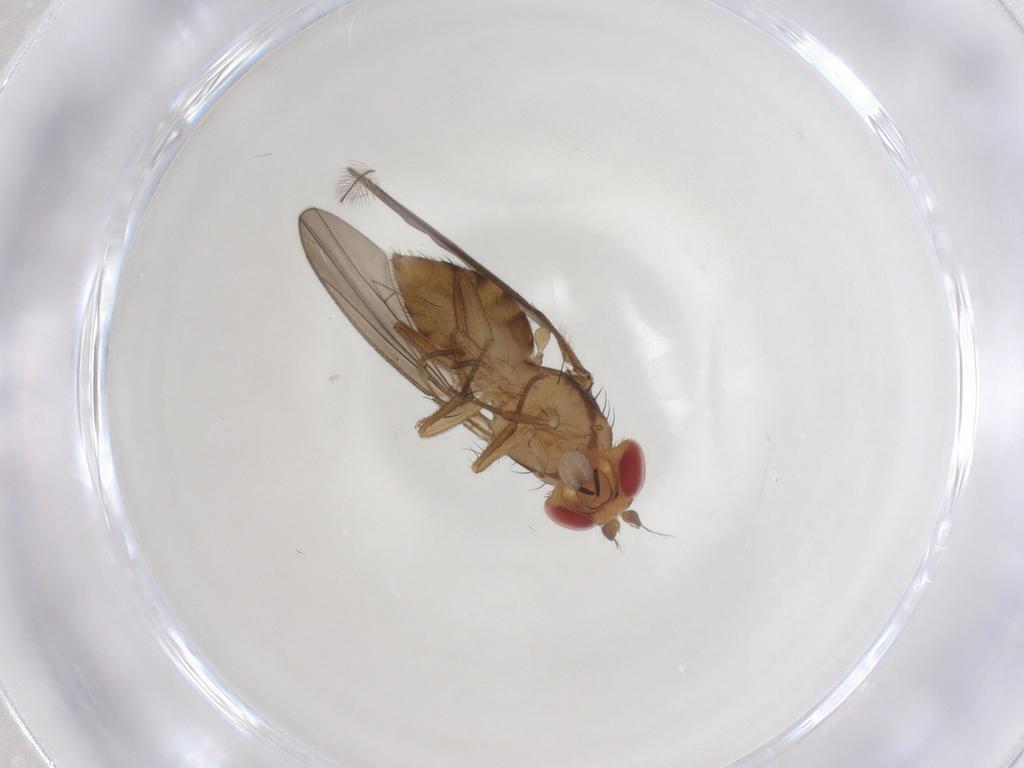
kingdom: Animalia
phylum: Arthropoda
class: Insecta
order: Diptera
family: Drosophilidae
